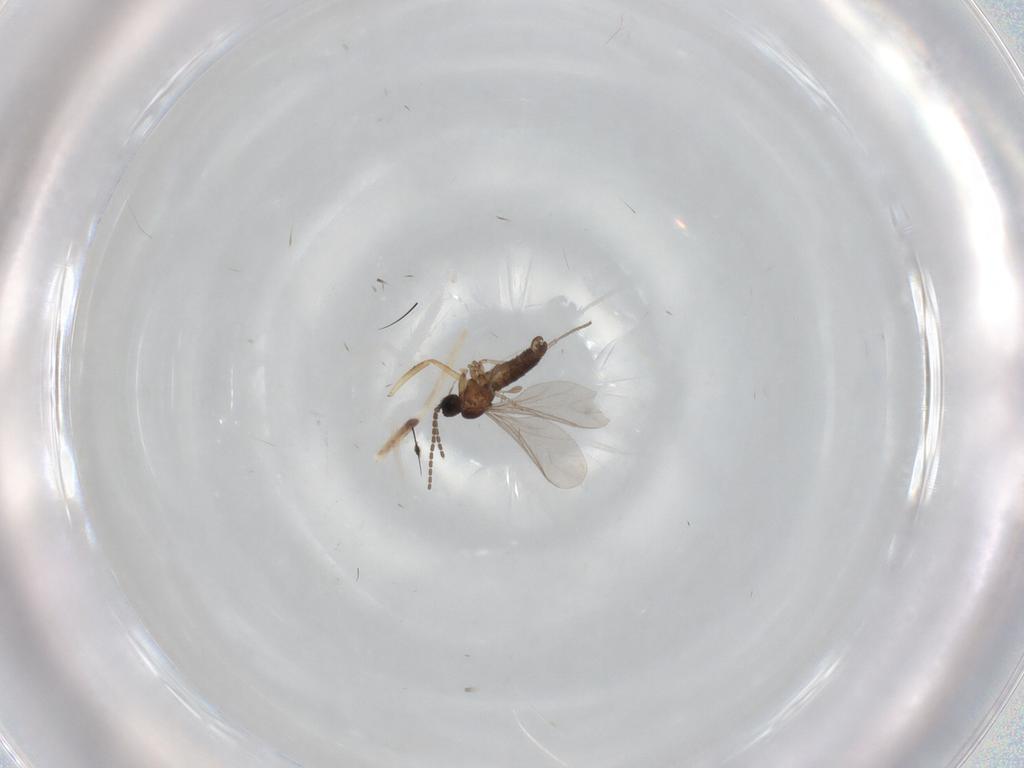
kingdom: Animalia
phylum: Arthropoda
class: Insecta
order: Diptera
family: Sciaridae
